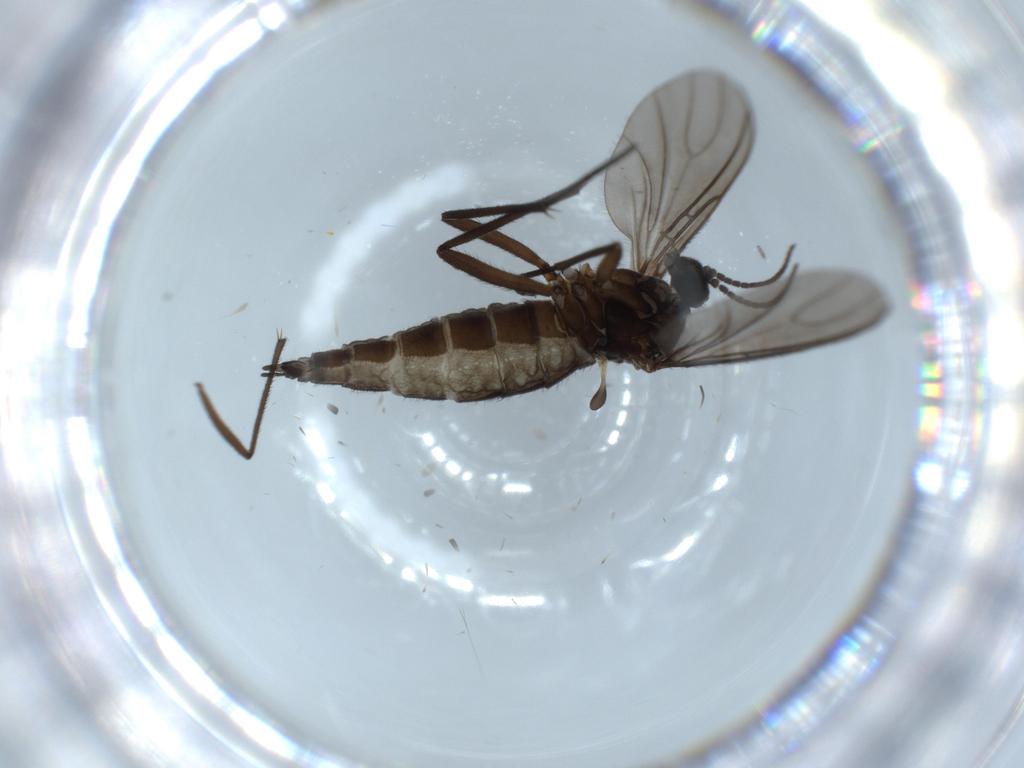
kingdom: Animalia
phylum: Arthropoda
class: Insecta
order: Diptera
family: Sciaridae
